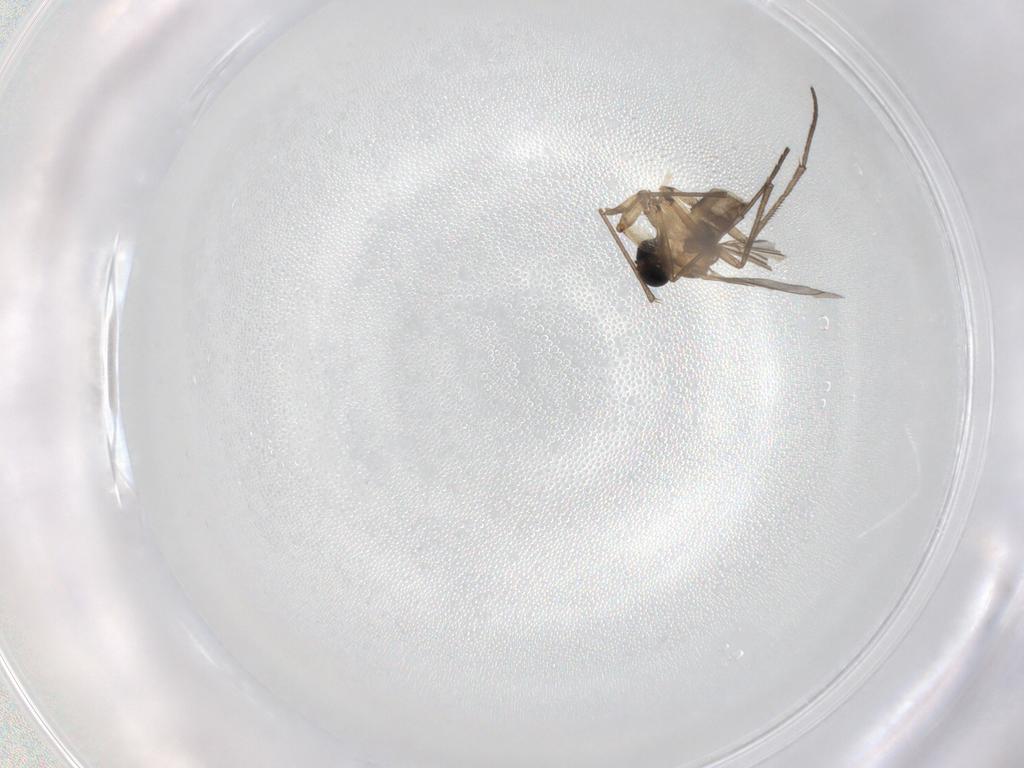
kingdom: Animalia
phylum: Arthropoda
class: Insecta
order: Diptera
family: Sciaridae
